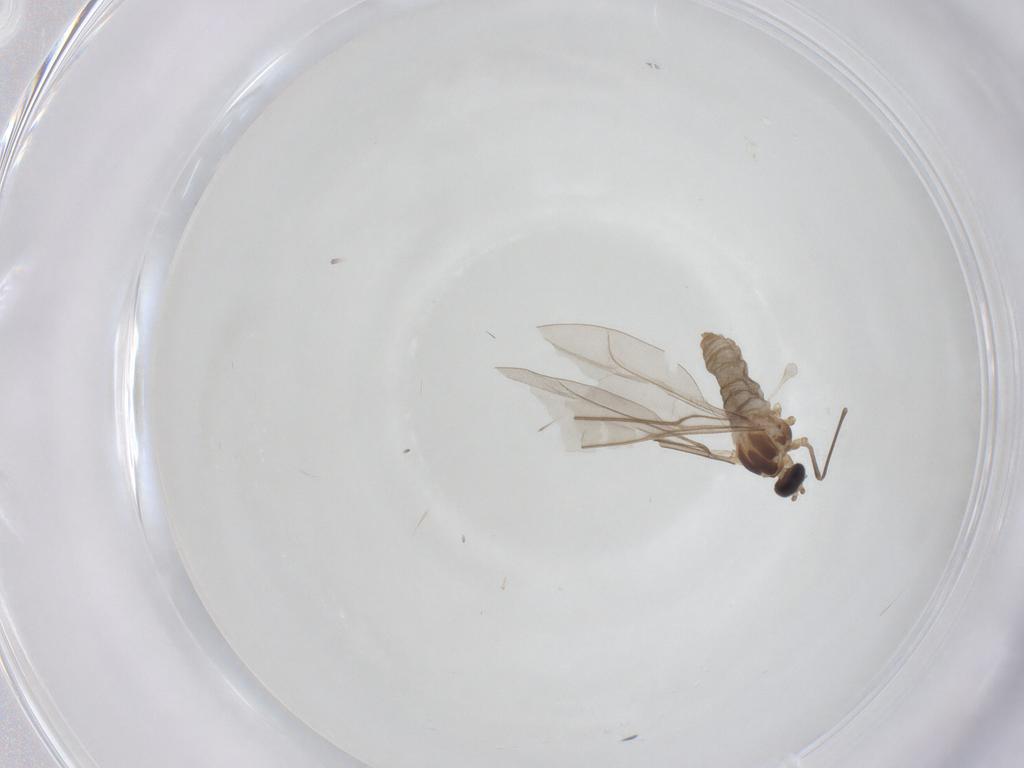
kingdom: Animalia
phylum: Arthropoda
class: Insecta
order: Diptera
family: Cecidomyiidae
